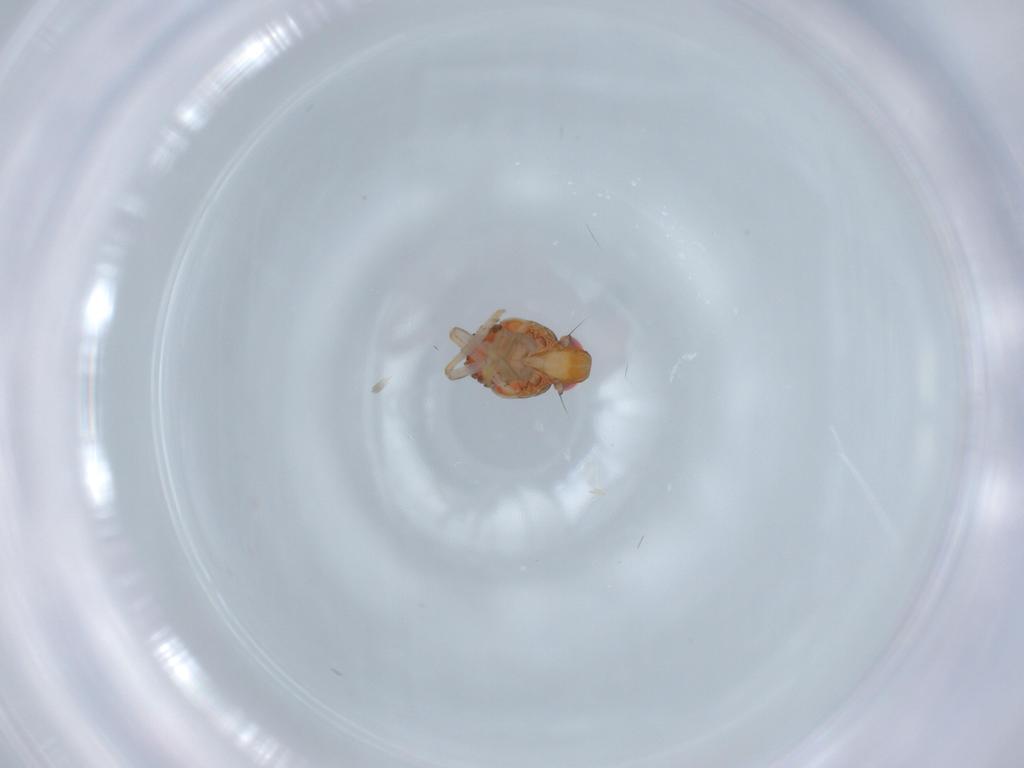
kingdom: Animalia
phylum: Arthropoda
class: Insecta
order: Hemiptera
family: Issidae
